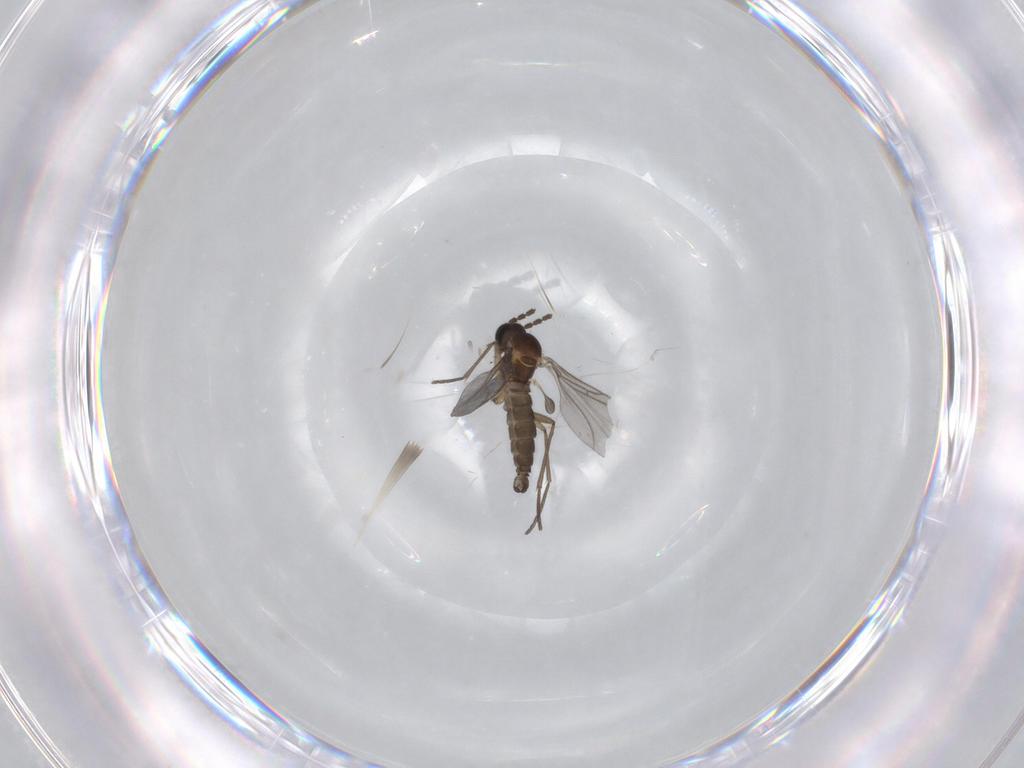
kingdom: Animalia
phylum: Arthropoda
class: Insecta
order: Diptera
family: Sciaridae
